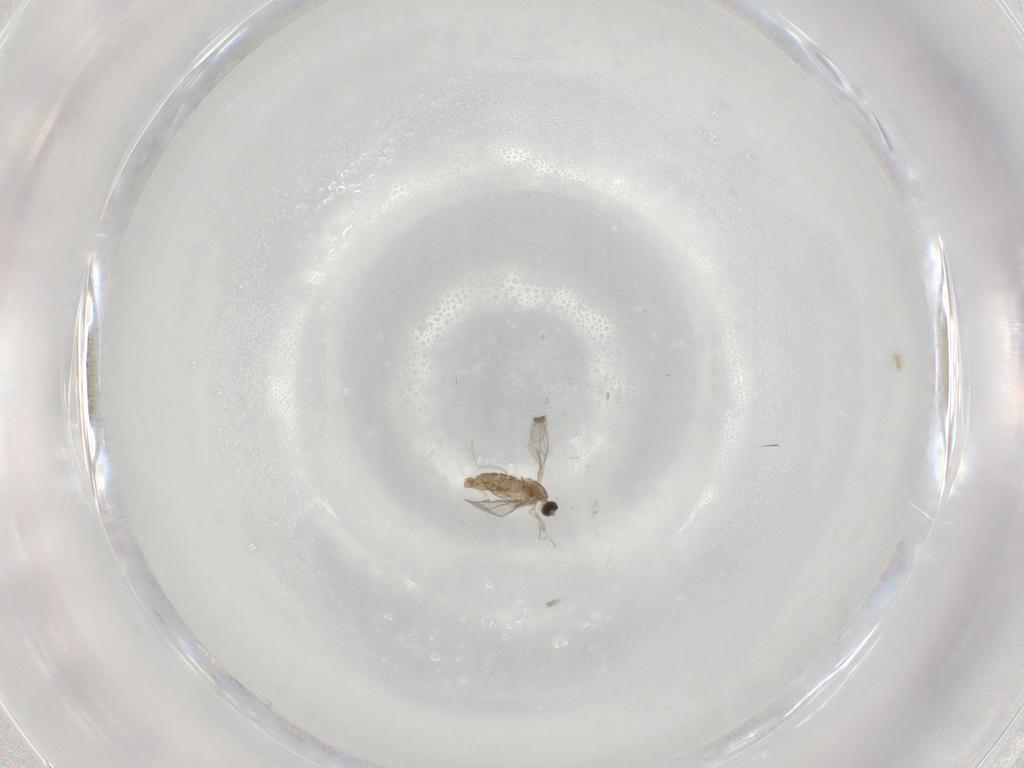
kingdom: Animalia
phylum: Arthropoda
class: Insecta
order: Diptera
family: Cecidomyiidae
